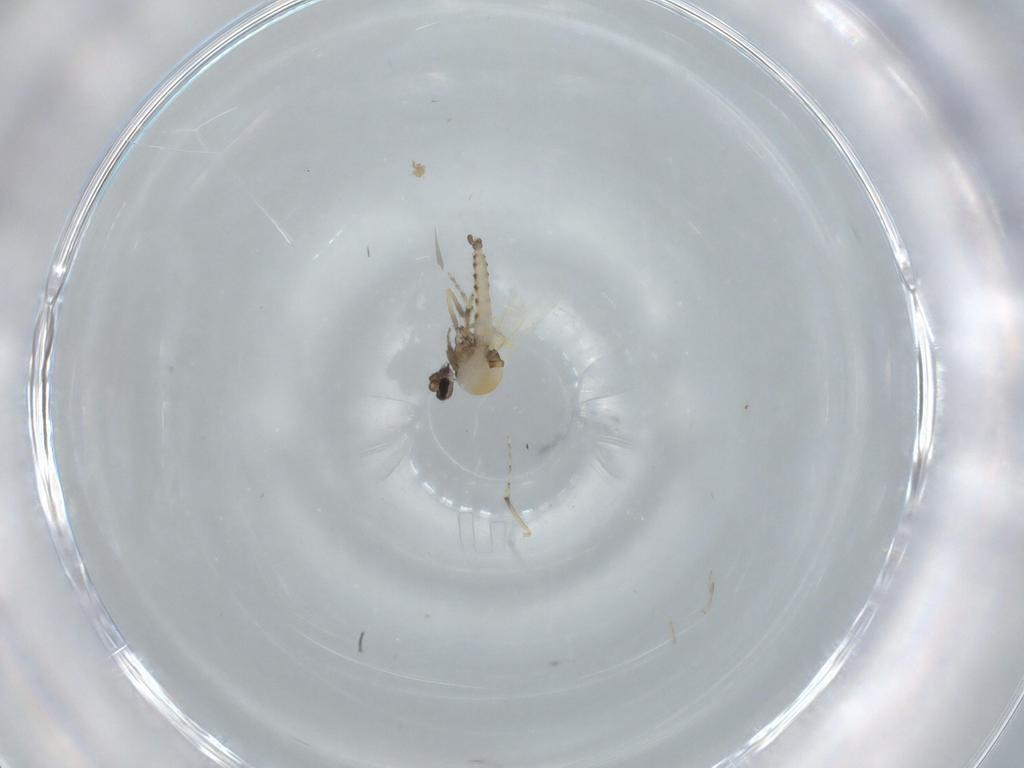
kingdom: Animalia
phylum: Arthropoda
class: Insecta
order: Diptera
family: Ceratopogonidae
